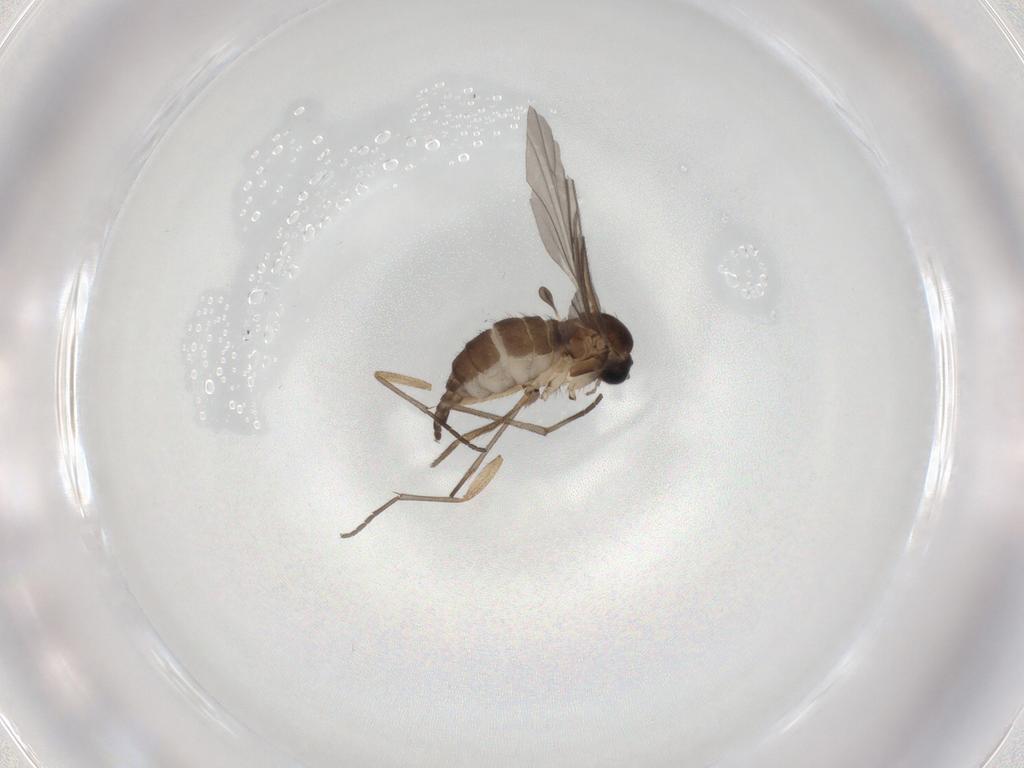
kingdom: Animalia
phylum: Arthropoda
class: Insecta
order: Diptera
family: Sciaridae
